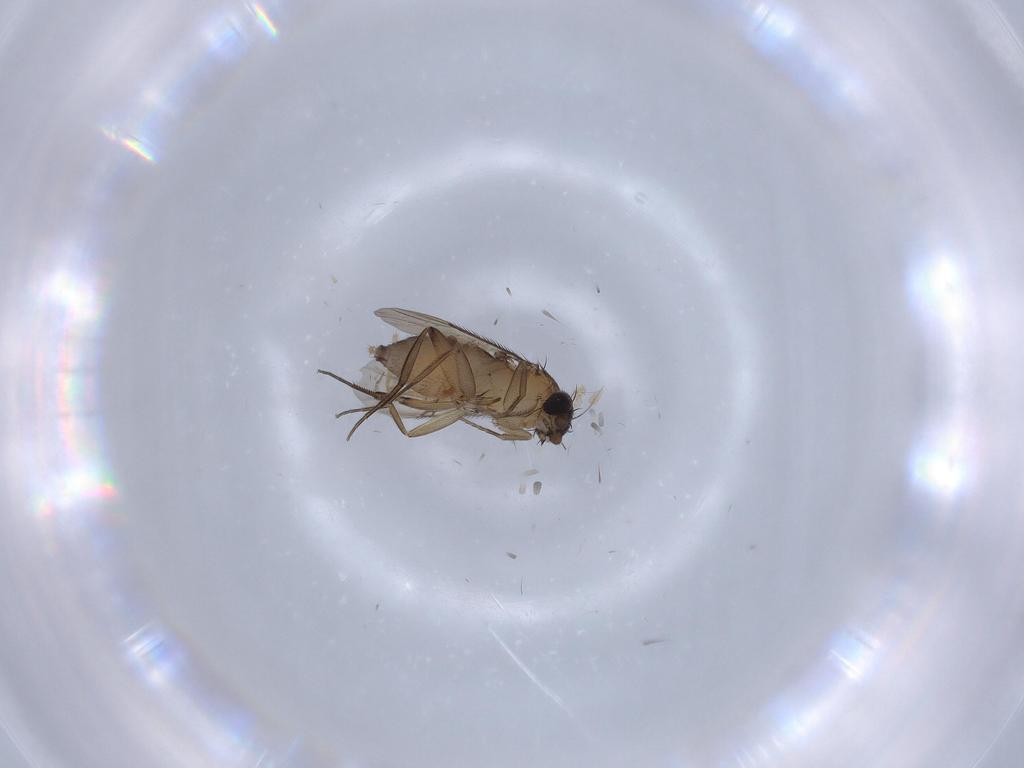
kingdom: Animalia
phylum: Arthropoda
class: Insecta
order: Diptera
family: Phoridae
